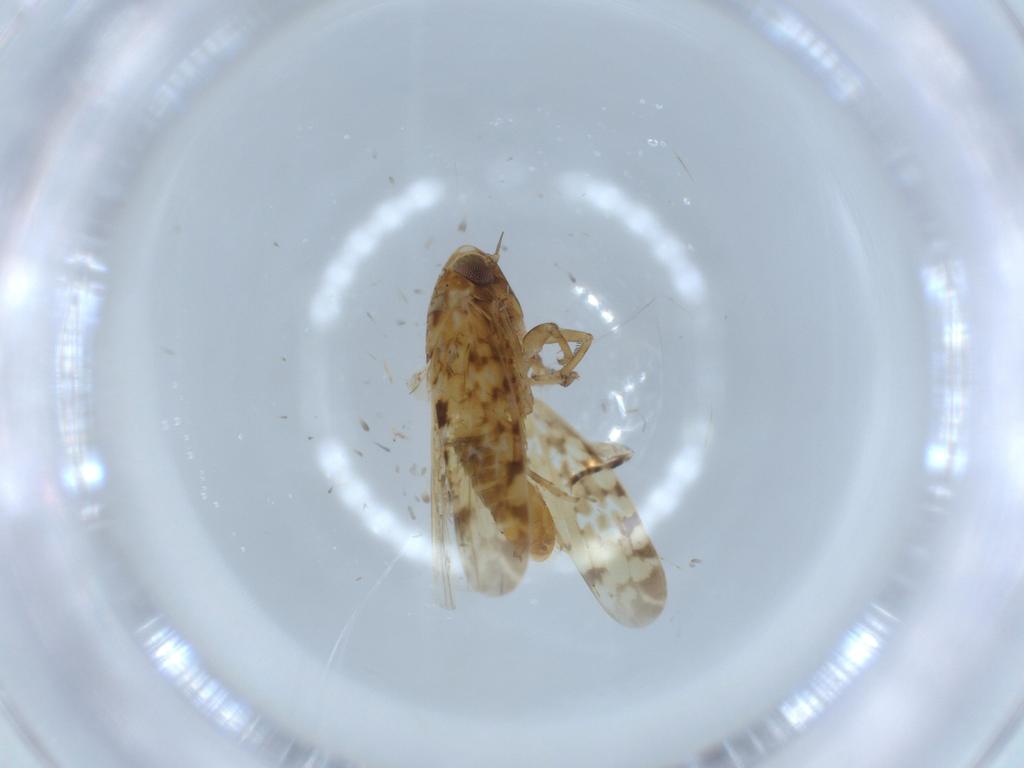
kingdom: Animalia
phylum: Arthropoda
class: Insecta
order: Hemiptera
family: Cicadellidae
